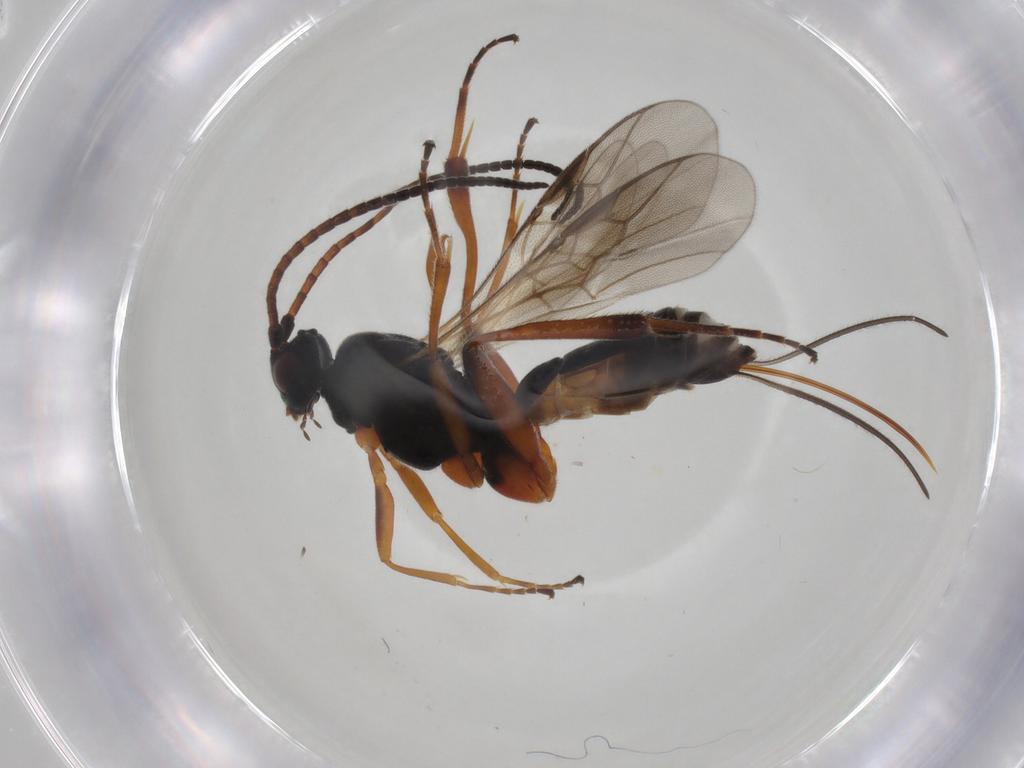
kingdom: Animalia
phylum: Arthropoda
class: Insecta
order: Hymenoptera
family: Braconidae
